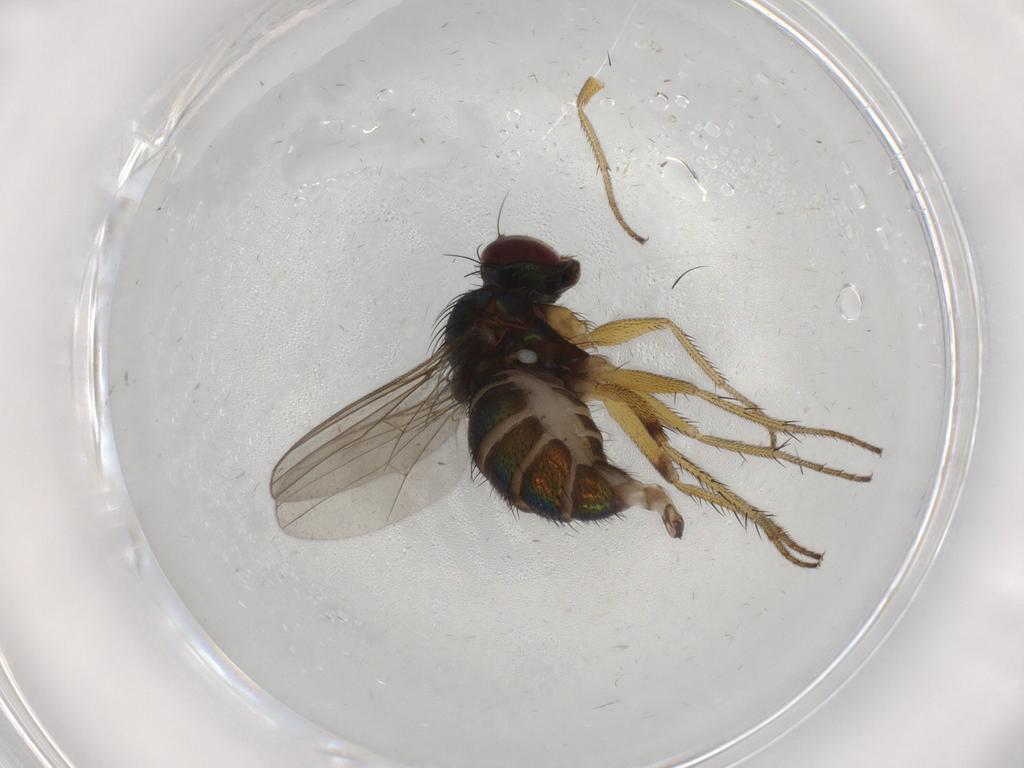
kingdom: Animalia
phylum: Arthropoda
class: Insecta
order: Diptera
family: Dolichopodidae
